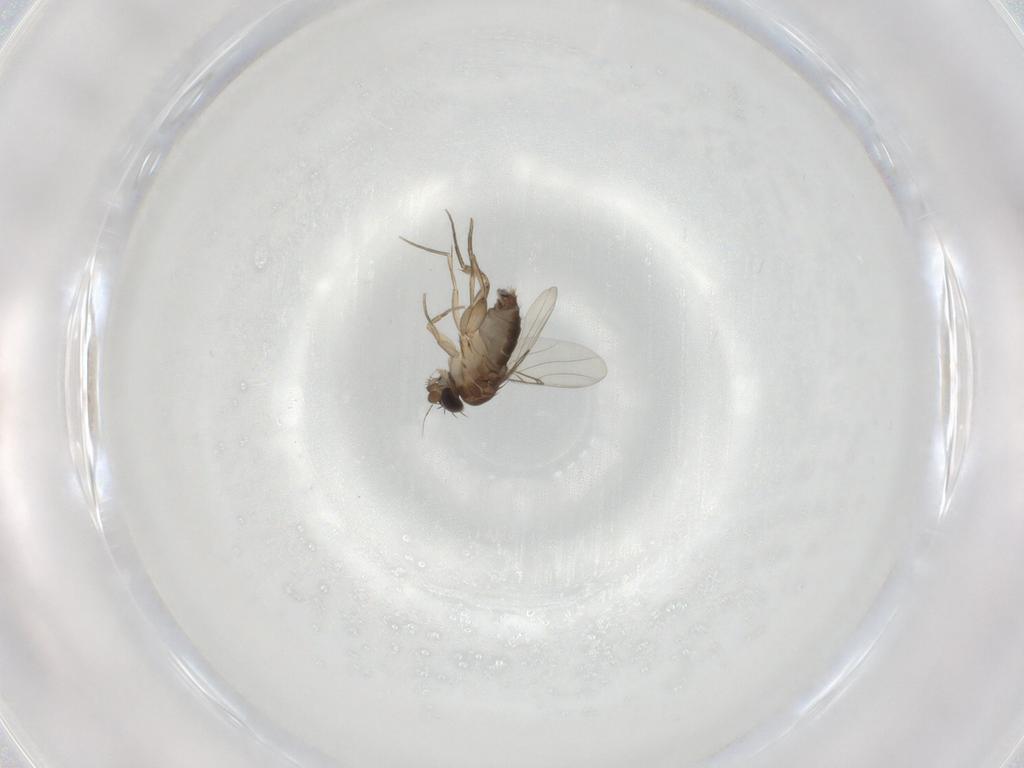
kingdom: Animalia
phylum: Arthropoda
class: Insecta
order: Diptera
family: Phoridae
